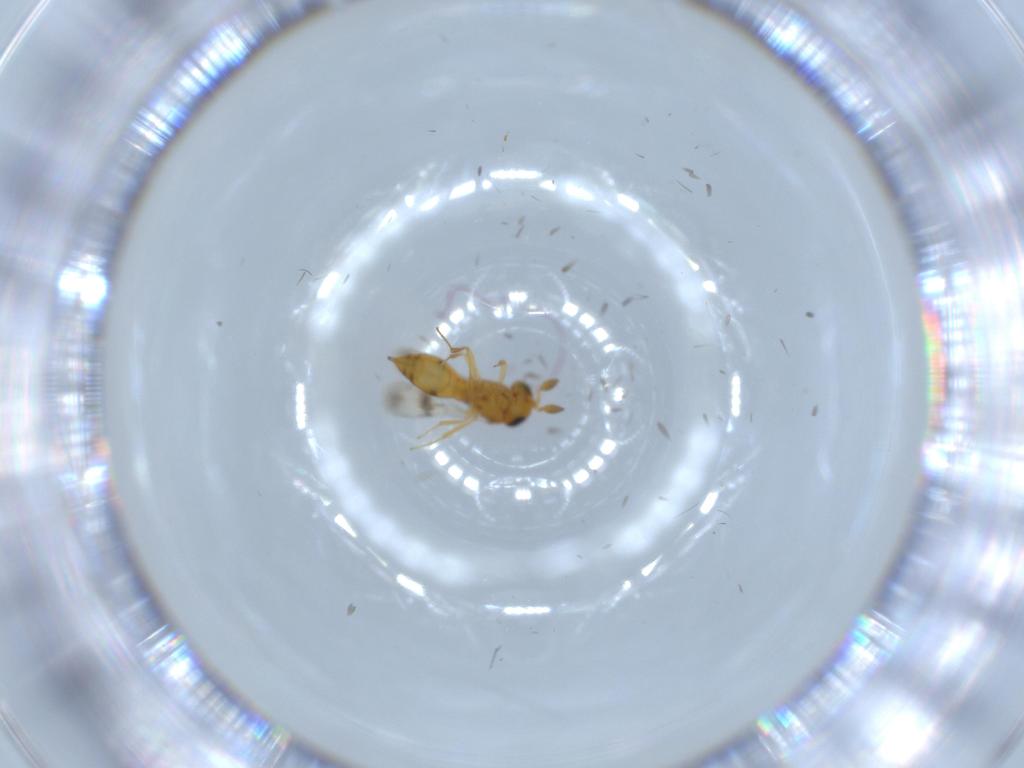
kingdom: Animalia
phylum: Arthropoda
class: Insecta
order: Hymenoptera
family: Scelionidae
